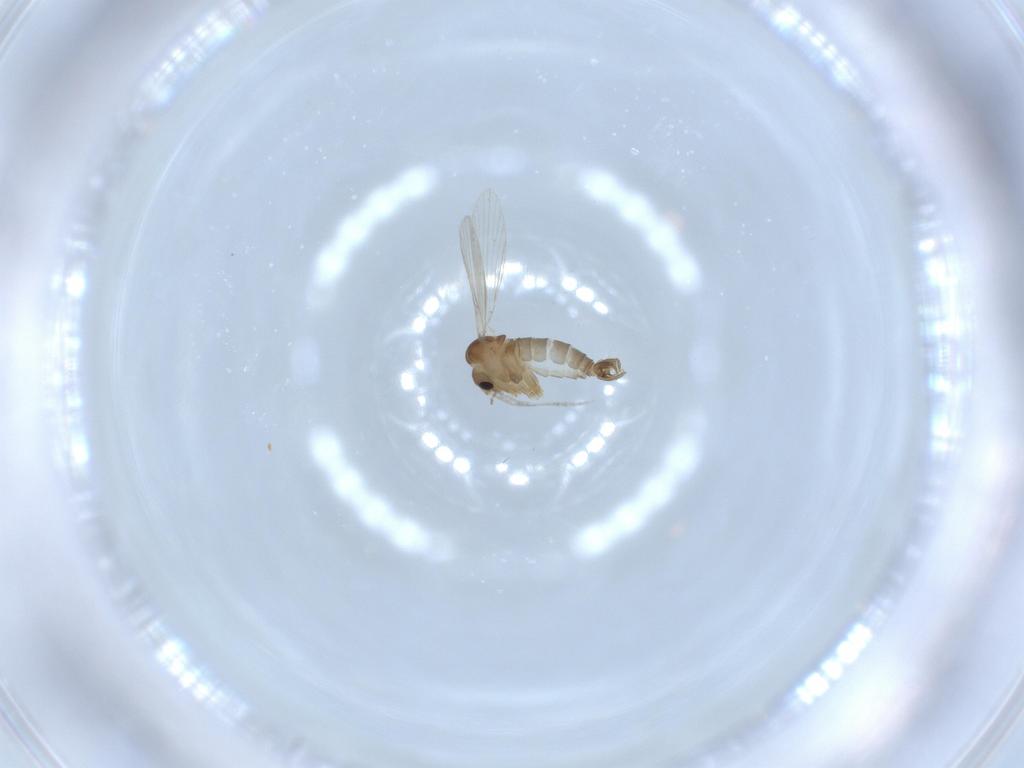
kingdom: Animalia
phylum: Arthropoda
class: Insecta
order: Diptera
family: Psychodidae
